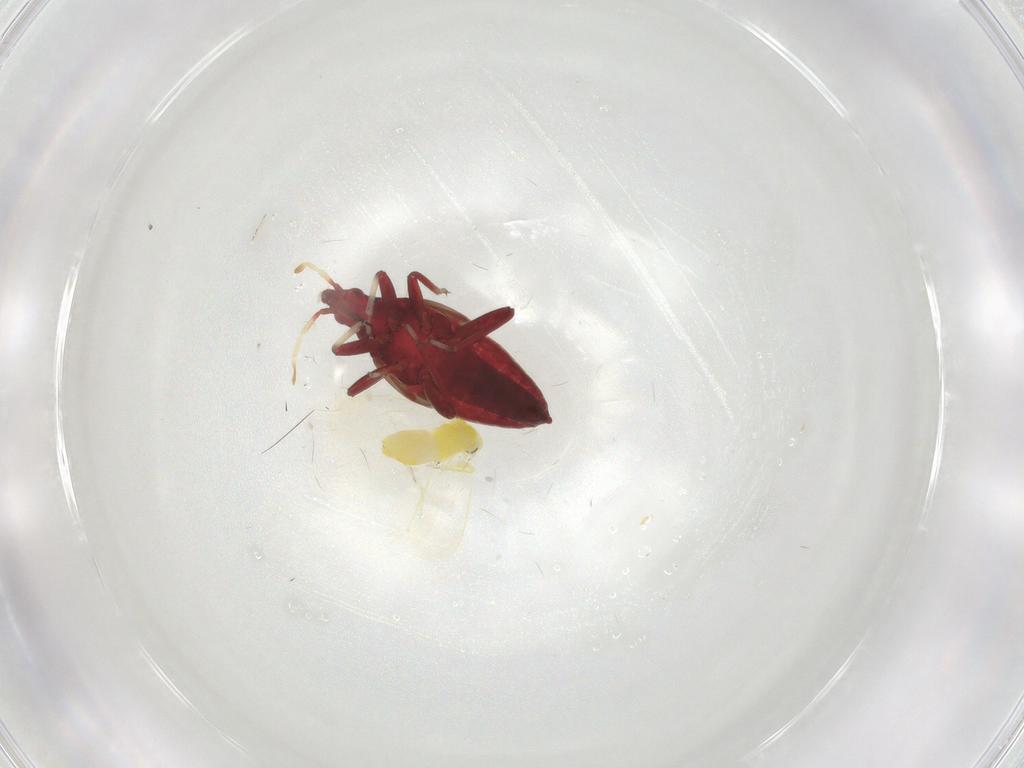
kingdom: Animalia
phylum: Arthropoda
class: Insecta
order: Hemiptera
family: Anthocoridae
